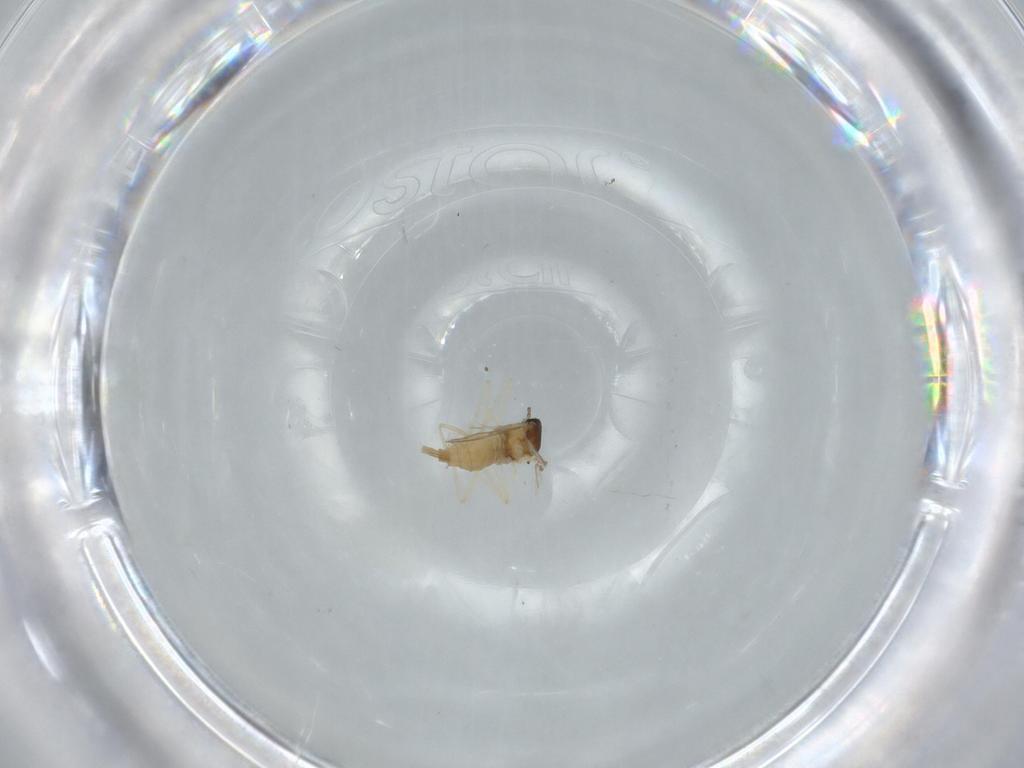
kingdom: Animalia
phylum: Arthropoda
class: Insecta
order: Diptera
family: Cecidomyiidae
